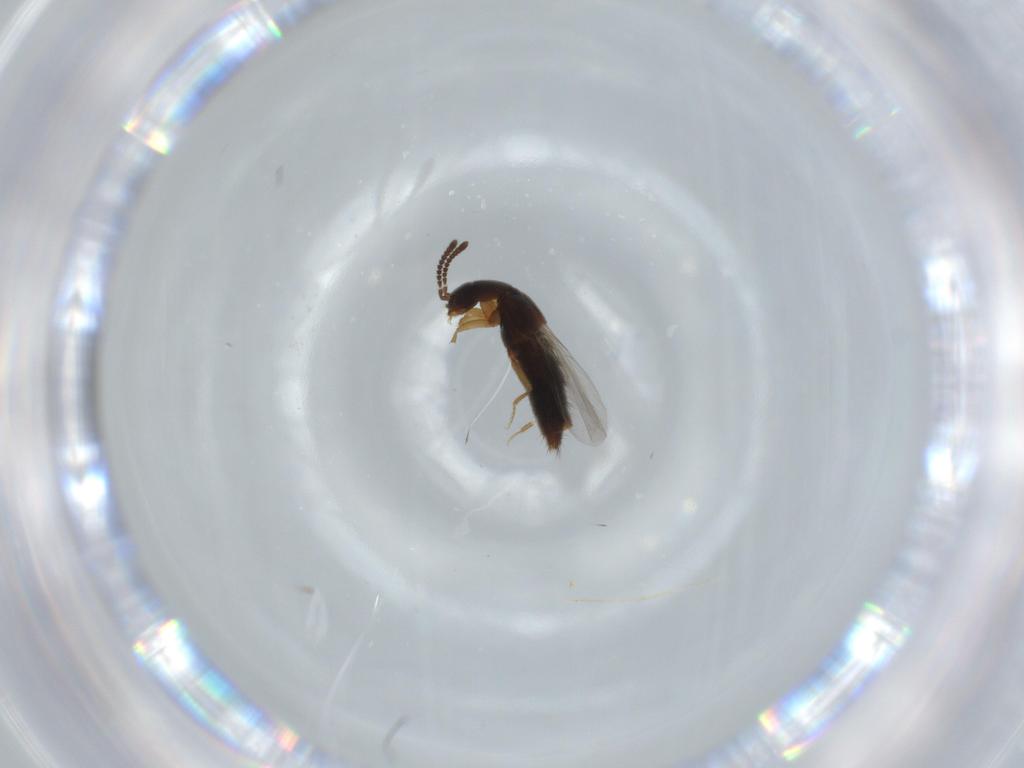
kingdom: Animalia
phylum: Arthropoda
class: Insecta
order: Coleoptera
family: Staphylinidae
